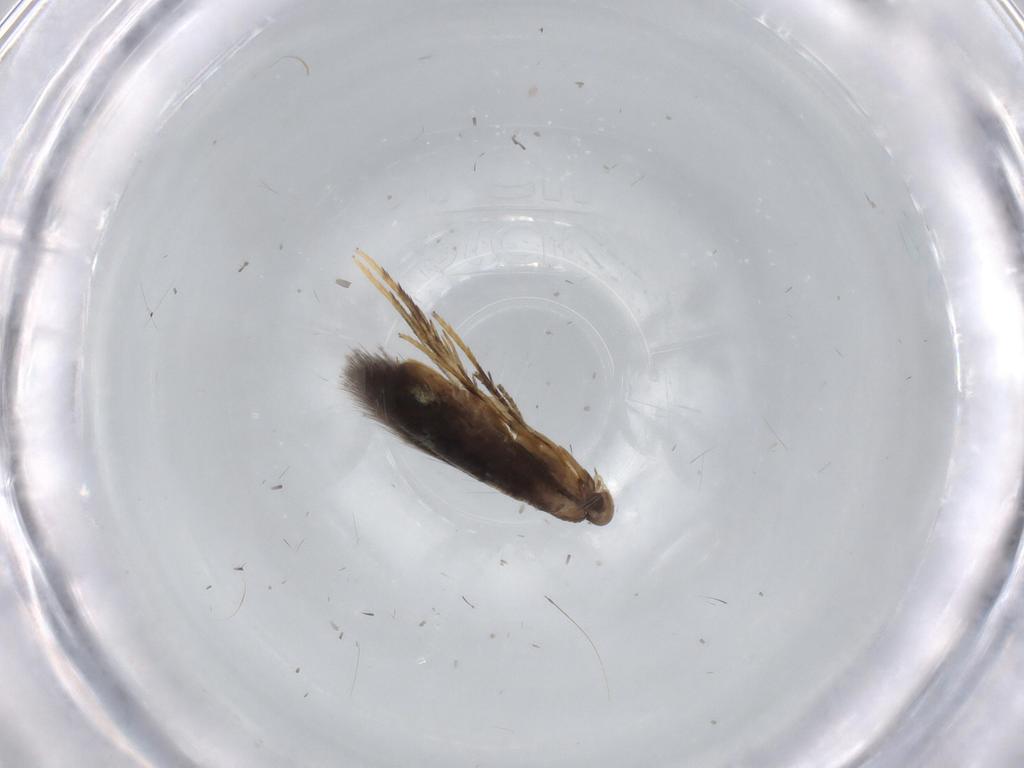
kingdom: Animalia
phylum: Arthropoda
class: Insecta
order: Lepidoptera
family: Heliozelidae
